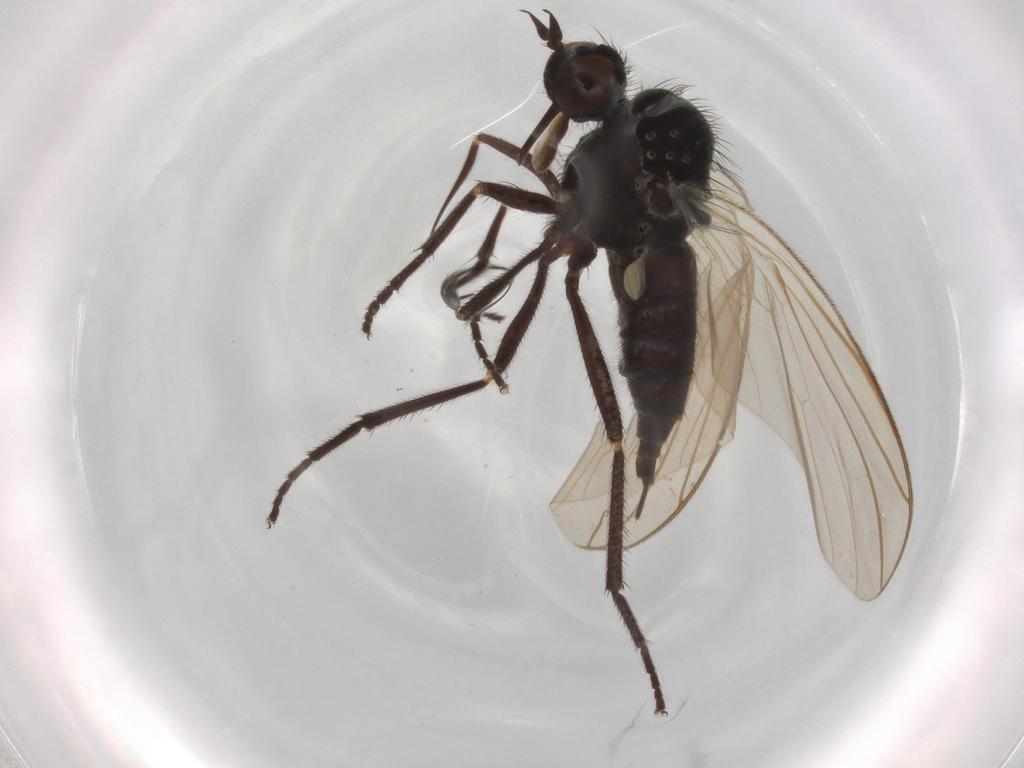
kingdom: Animalia
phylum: Arthropoda
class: Insecta
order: Diptera
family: Empididae
